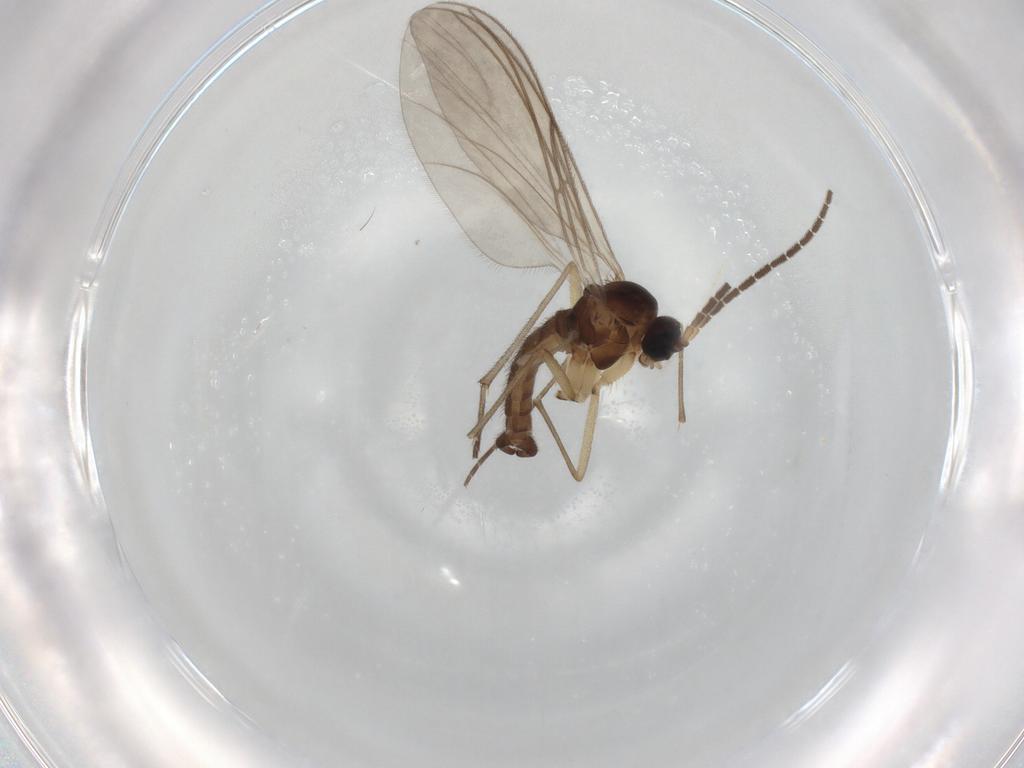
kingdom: Animalia
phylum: Arthropoda
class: Insecta
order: Diptera
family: Sciaridae
